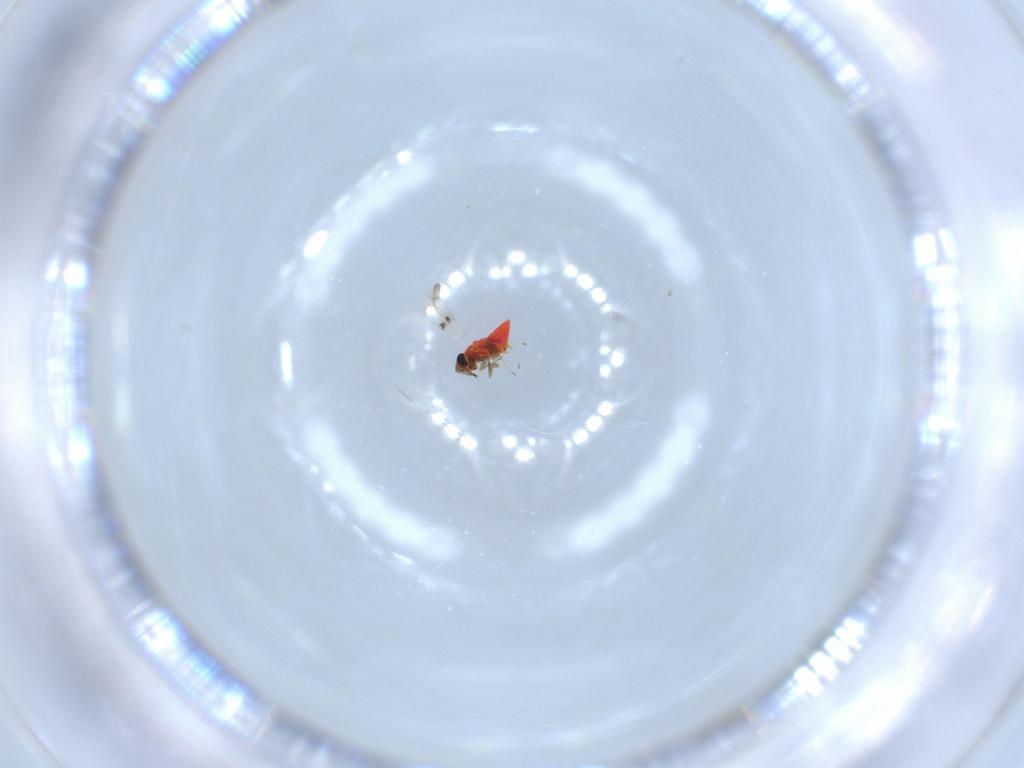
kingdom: Animalia
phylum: Arthropoda
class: Insecta
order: Hymenoptera
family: Trichogrammatidae
